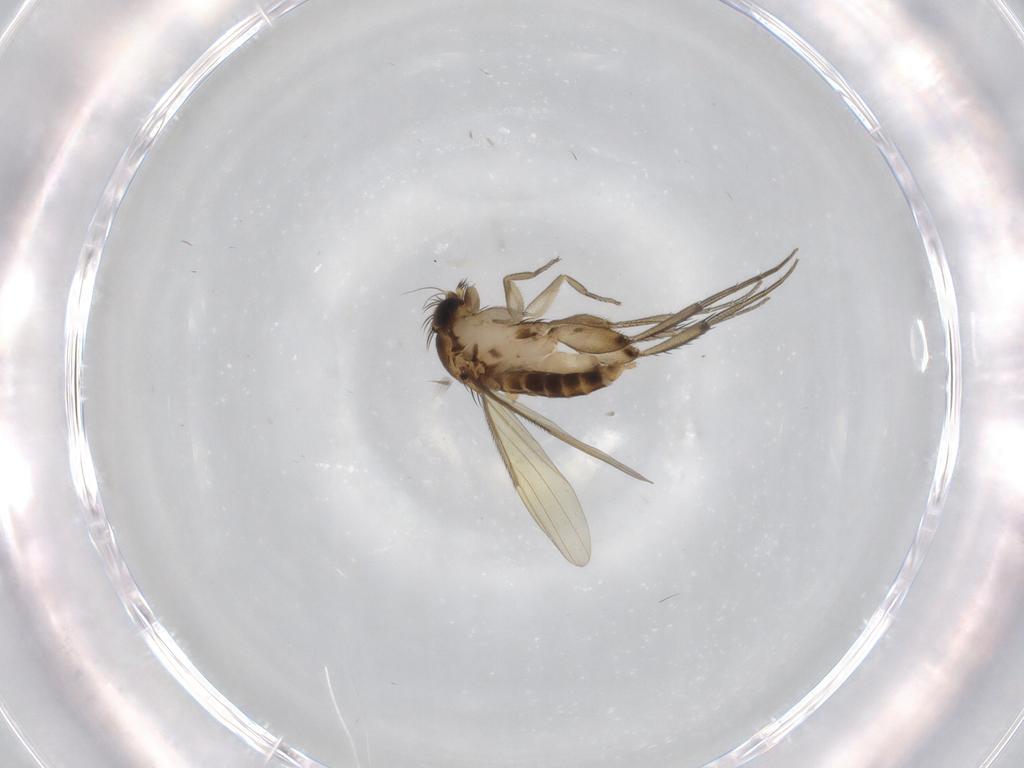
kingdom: Animalia
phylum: Arthropoda
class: Insecta
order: Diptera
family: Phoridae
